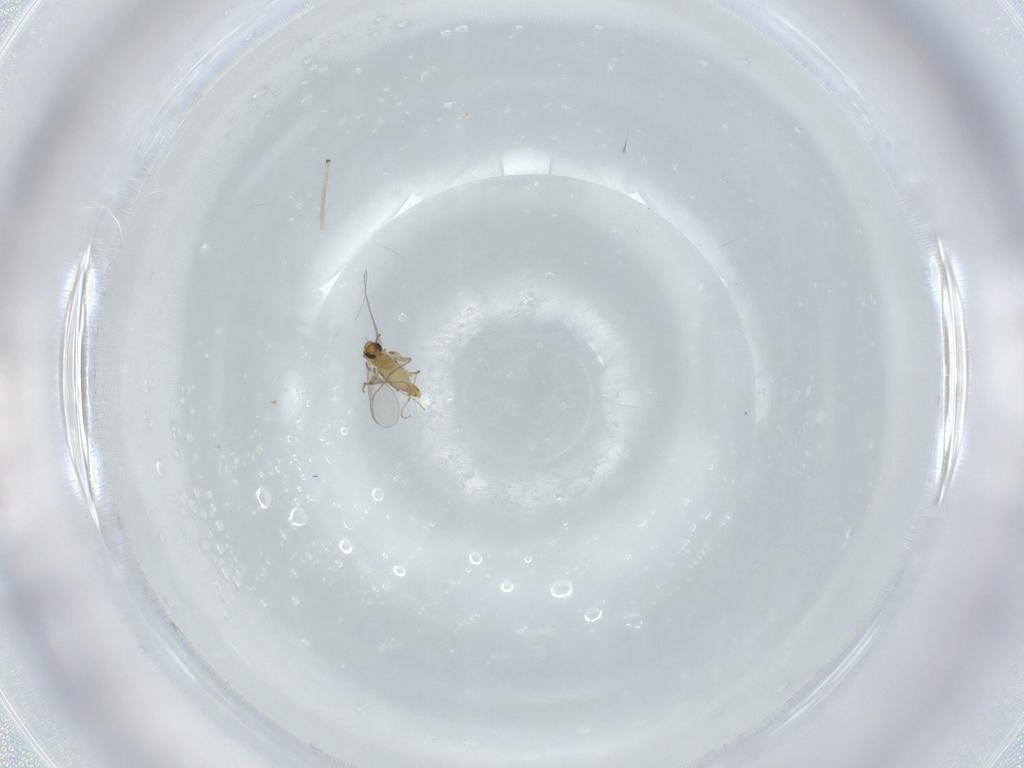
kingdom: Animalia
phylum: Arthropoda
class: Insecta
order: Diptera
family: Chironomidae
